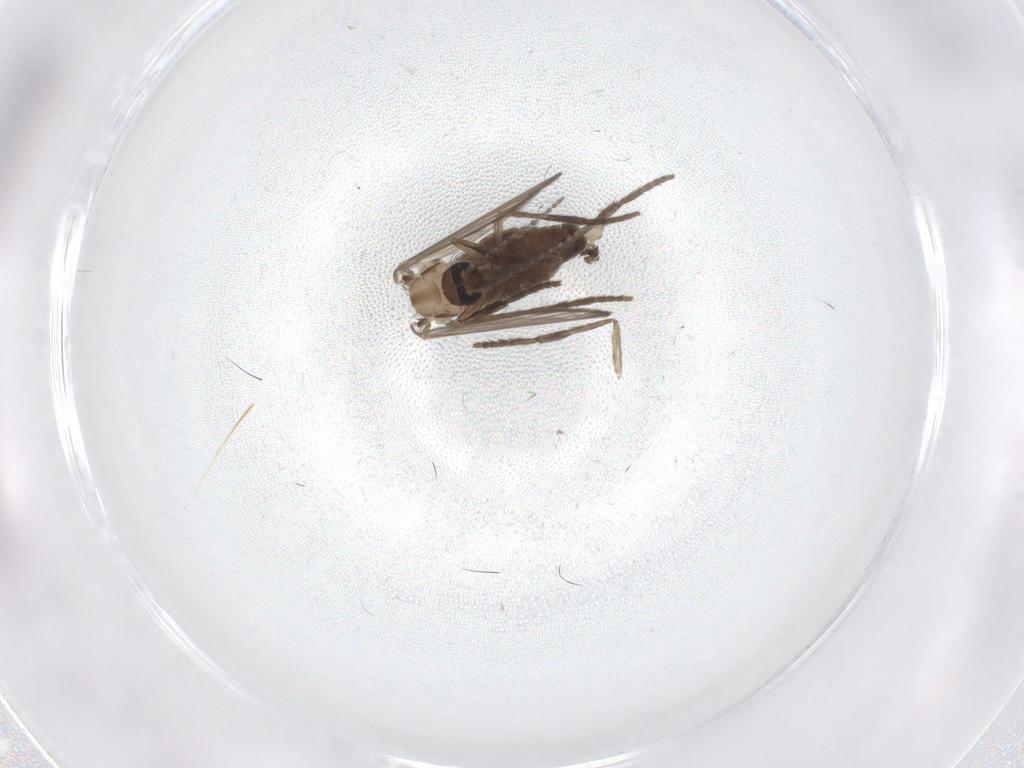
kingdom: Animalia
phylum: Arthropoda
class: Insecta
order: Diptera
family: Psychodidae
